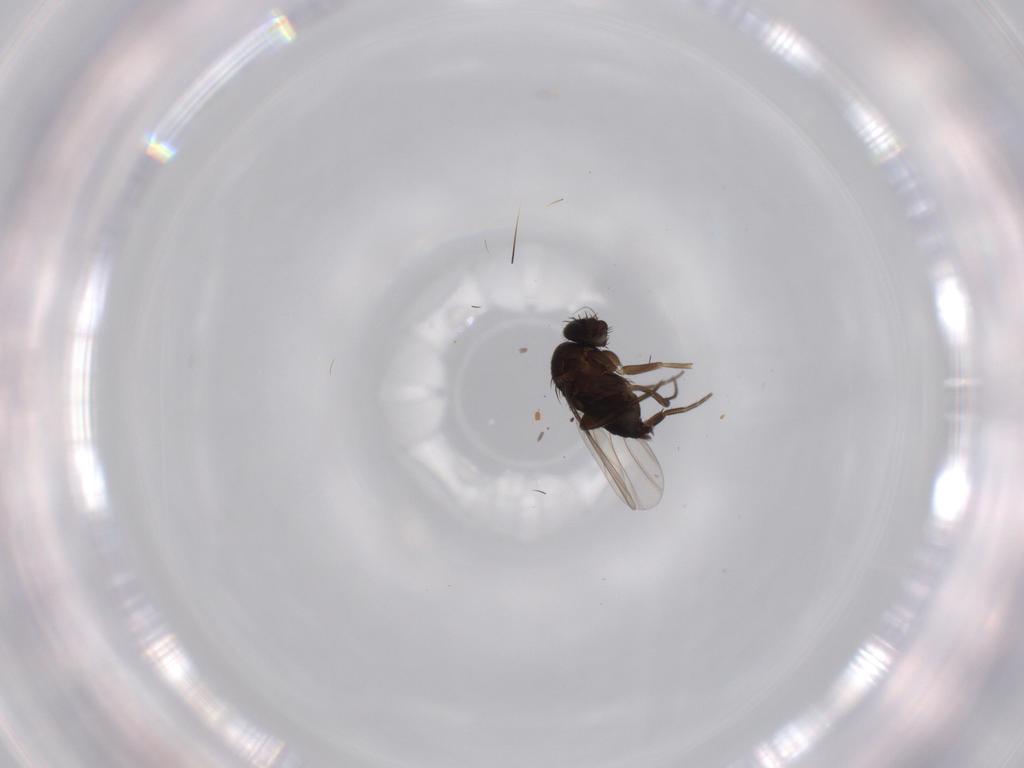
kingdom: Animalia
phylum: Arthropoda
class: Insecta
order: Diptera
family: Phoridae
